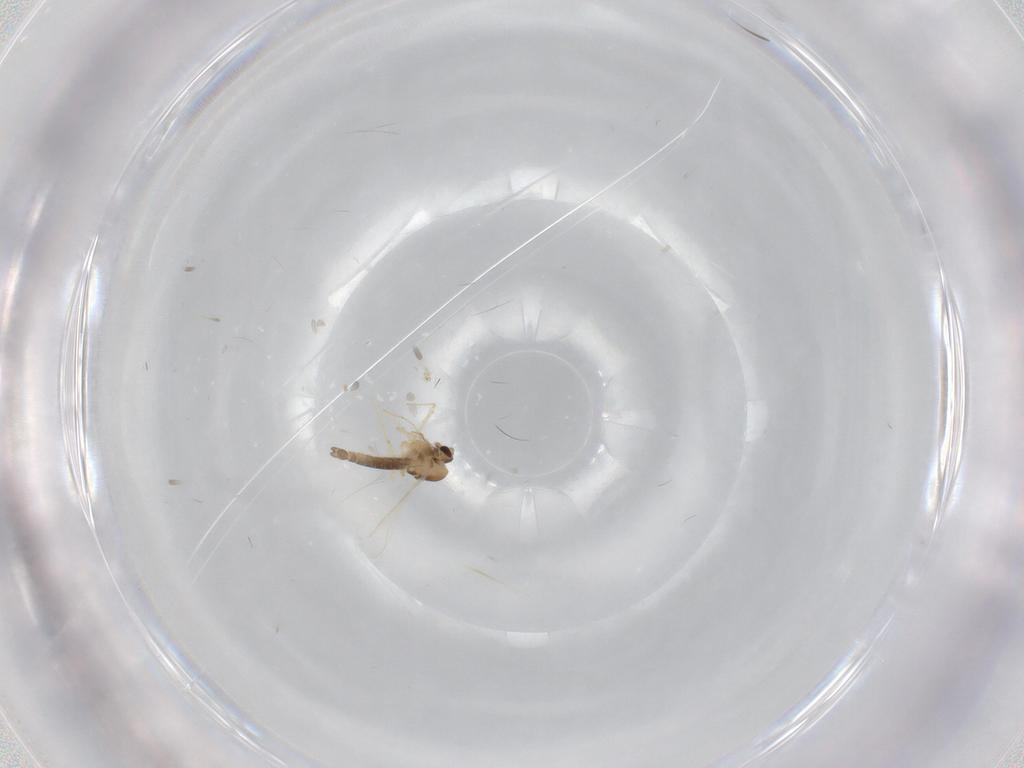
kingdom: Animalia
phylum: Arthropoda
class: Insecta
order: Diptera
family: Chironomidae
